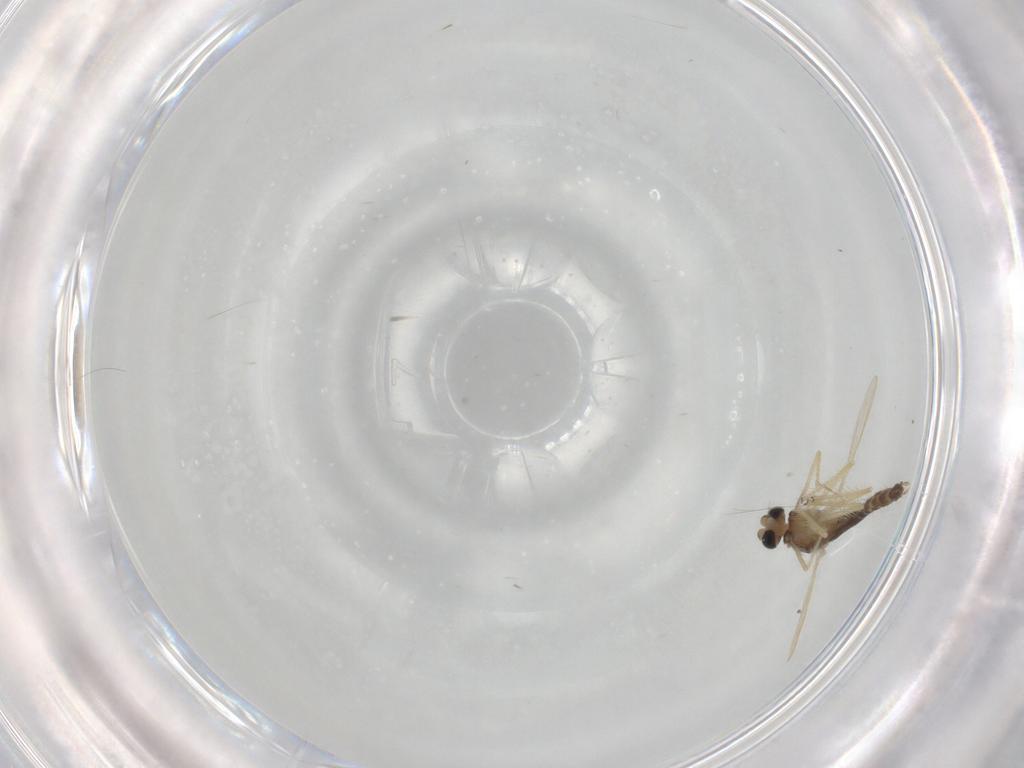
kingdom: Animalia
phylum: Arthropoda
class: Insecta
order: Diptera
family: Chironomidae
